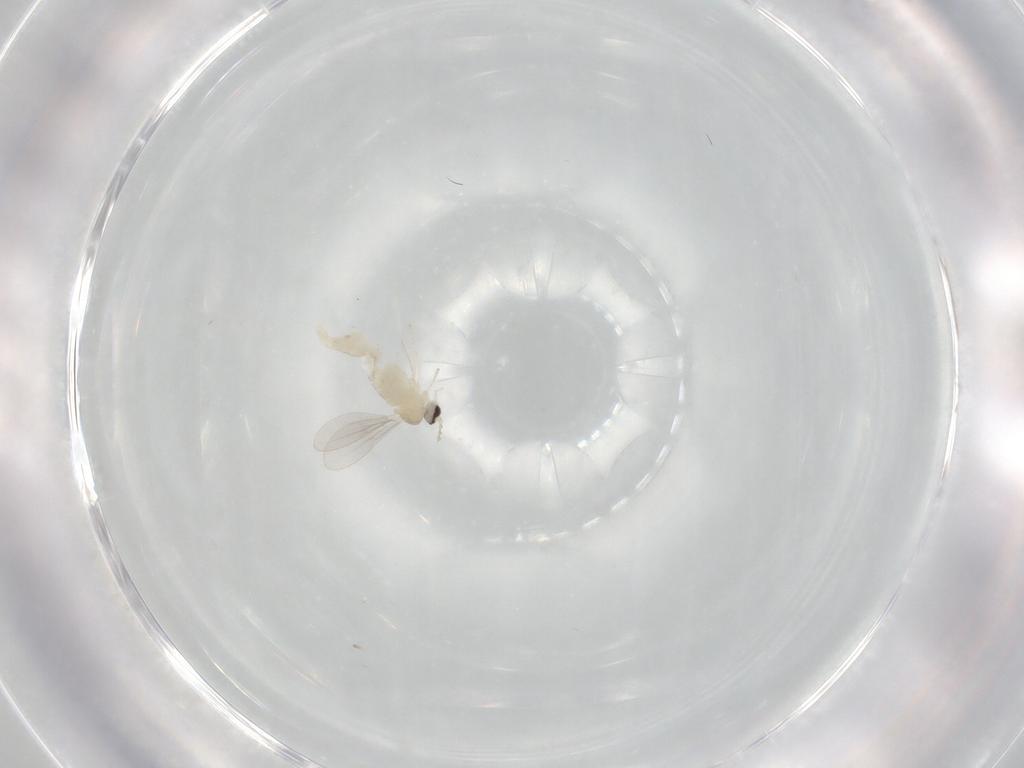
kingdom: Animalia
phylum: Arthropoda
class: Insecta
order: Diptera
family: Cecidomyiidae
